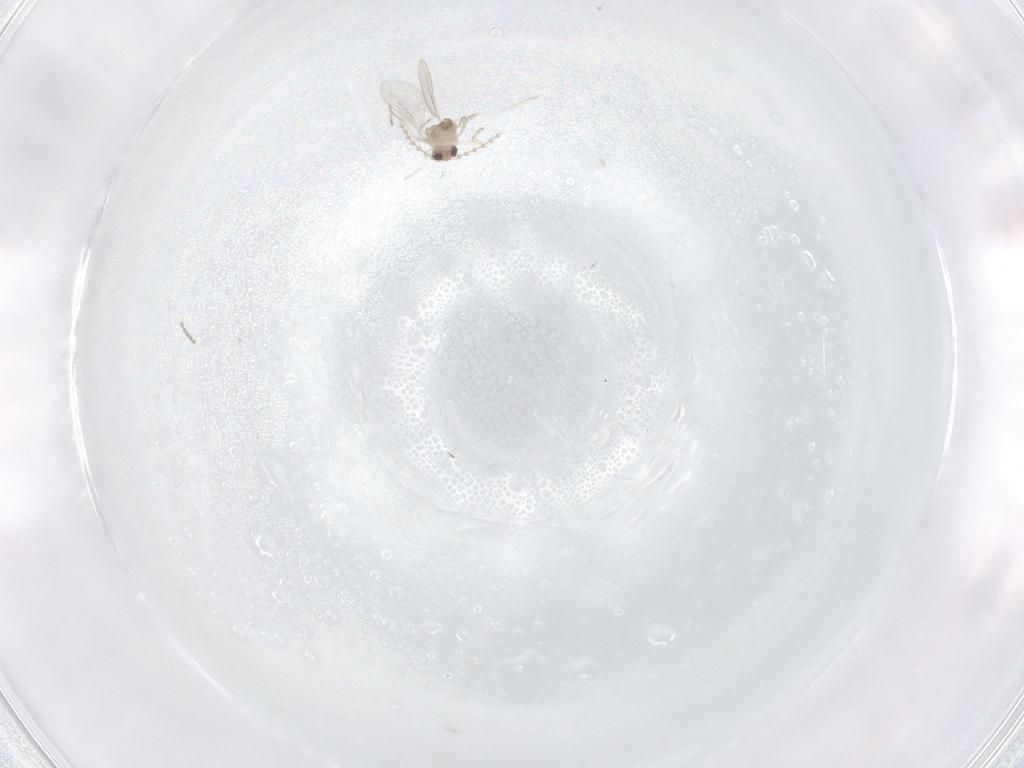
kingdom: Animalia
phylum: Arthropoda
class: Insecta
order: Diptera
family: Cecidomyiidae
